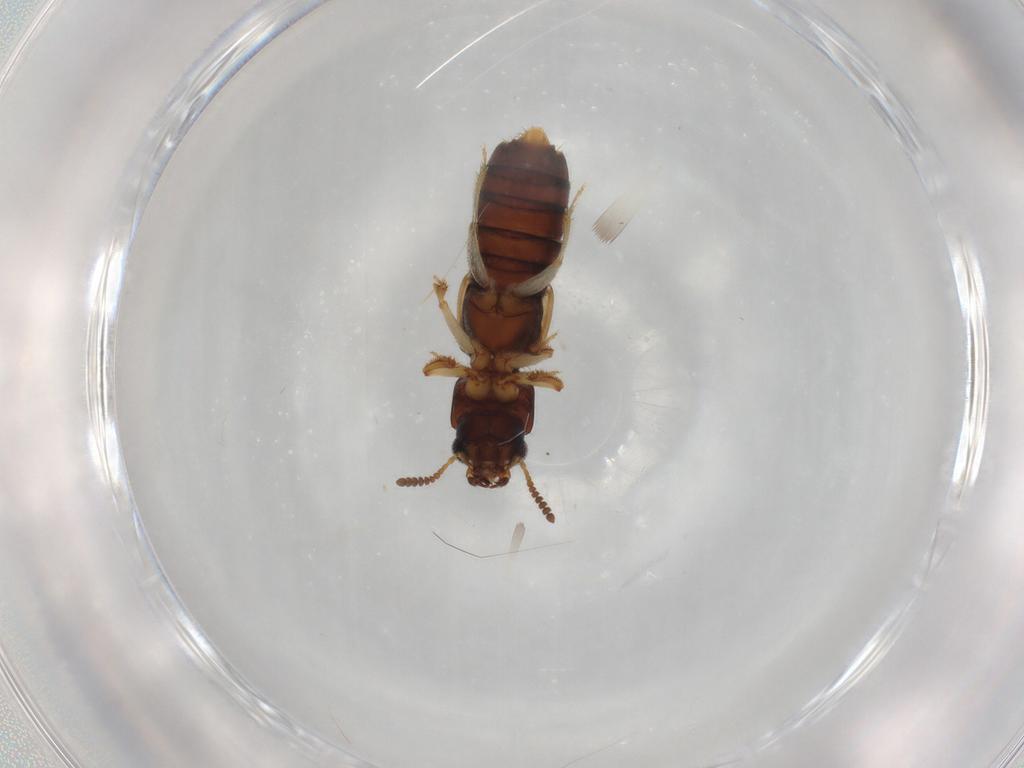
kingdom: Animalia
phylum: Arthropoda
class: Insecta
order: Coleoptera
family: Staphylinidae
